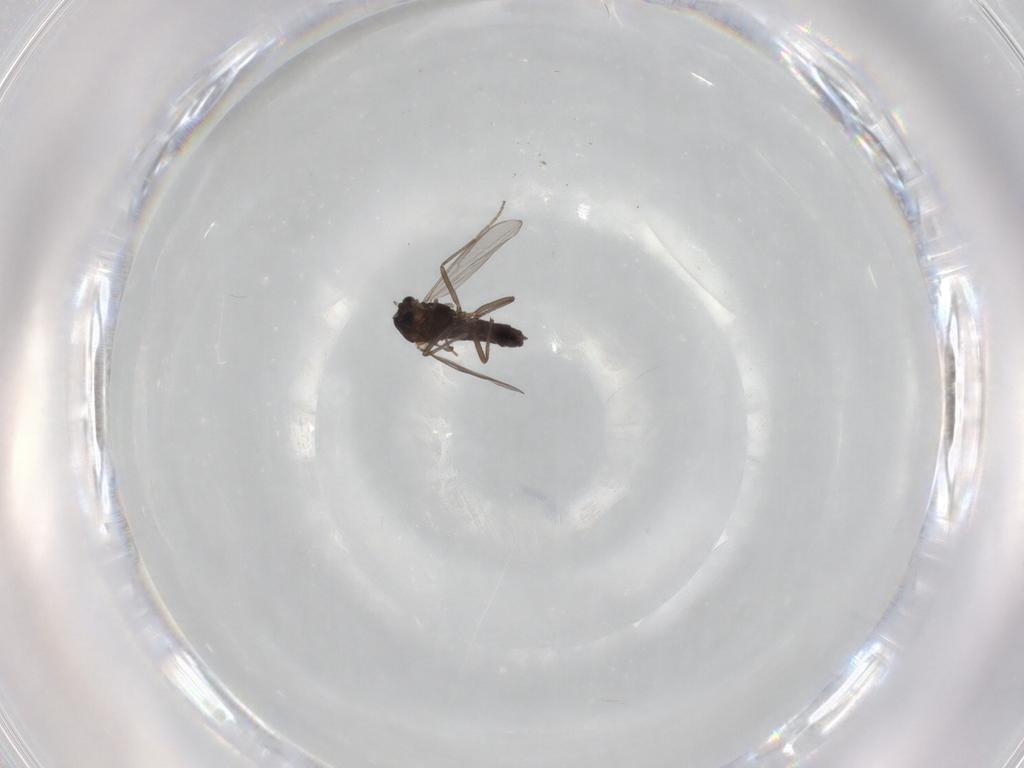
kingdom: Animalia
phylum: Arthropoda
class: Insecta
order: Diptera
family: Chironomidae
